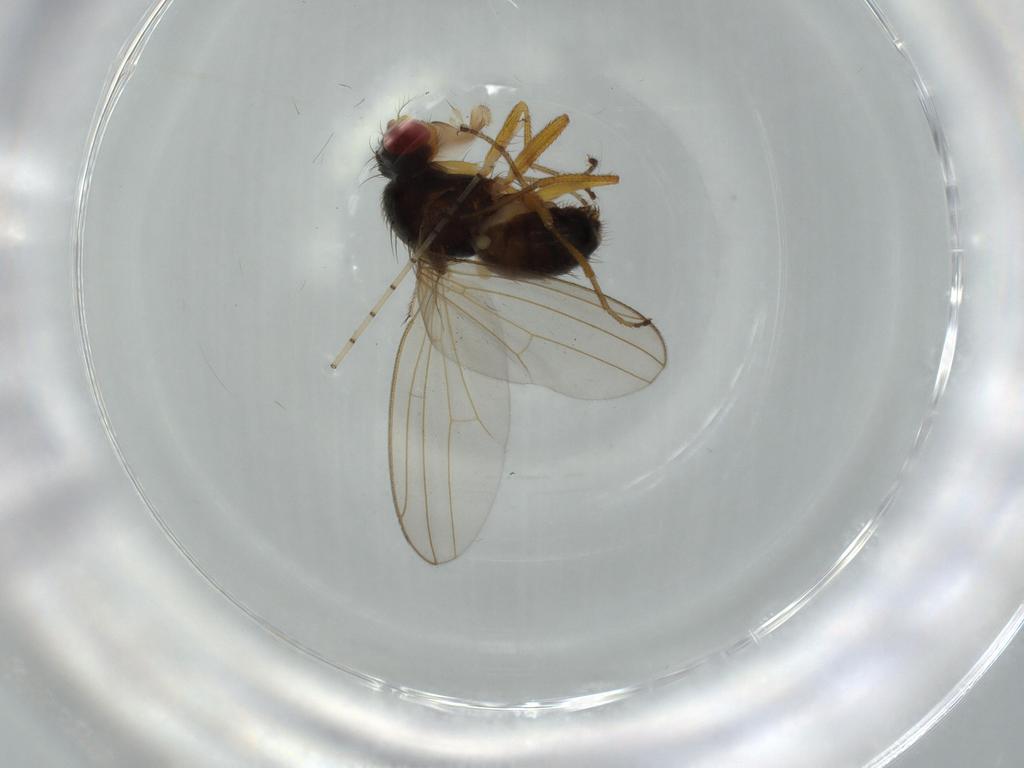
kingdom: Animalia
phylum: Arthropoda
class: Insecta
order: Diptera
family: Drosophilidae
